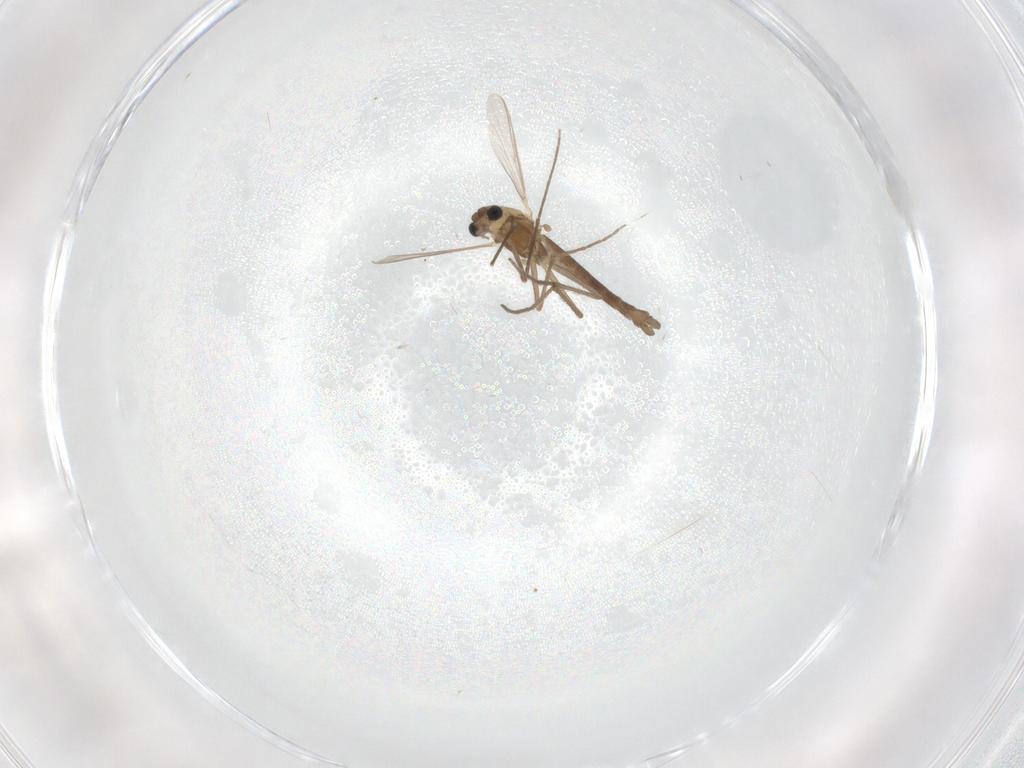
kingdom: Animalia
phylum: Arthropoda
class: Insecta
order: Diptera
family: Chironomidae
